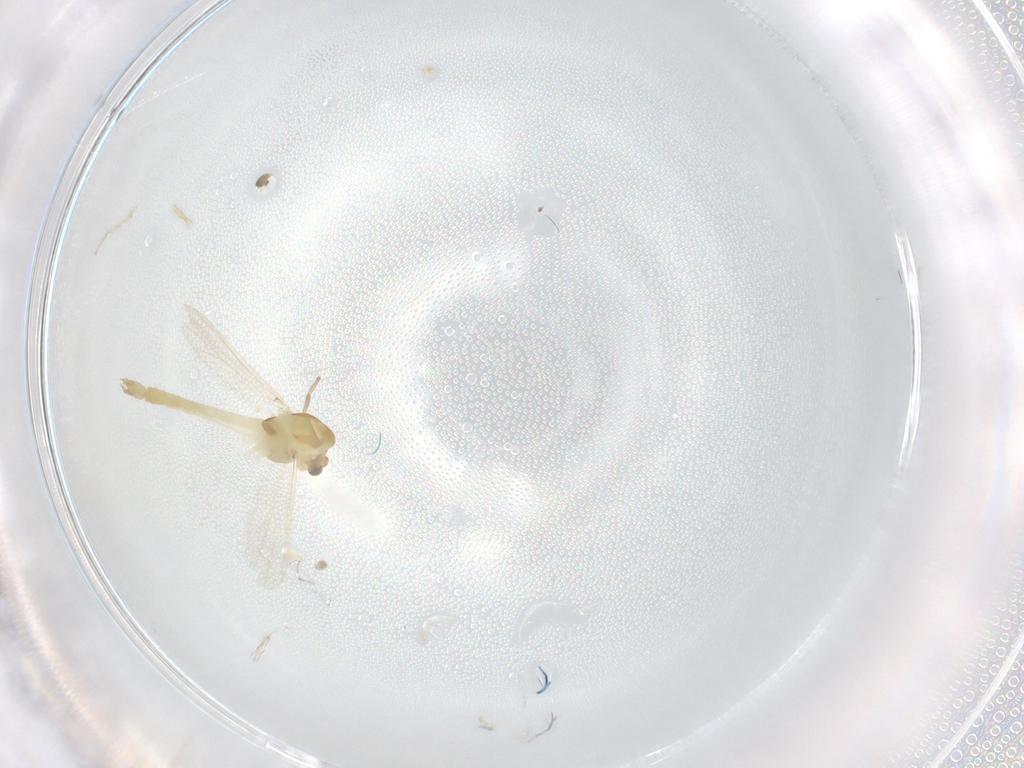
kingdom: Animalia
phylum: Arthropoda
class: Insecta
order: Diptera
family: Chironomidae
